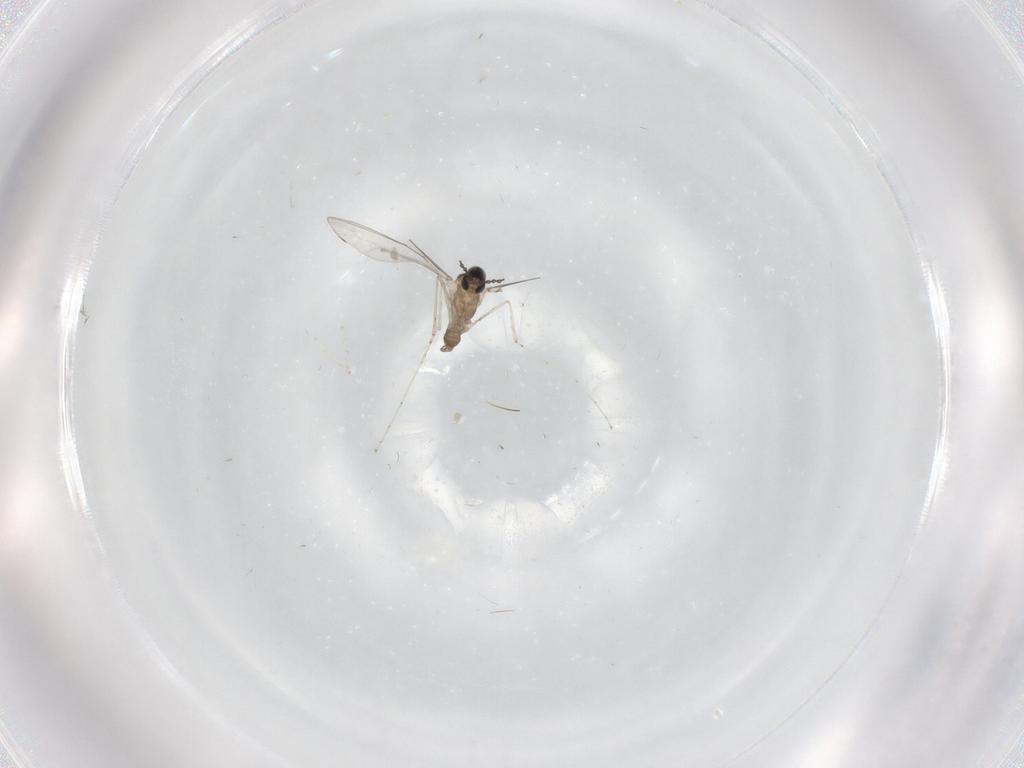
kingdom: Animalia
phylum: Arthropoda
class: Insecta
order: Diptera
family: Cecidomyiidae
